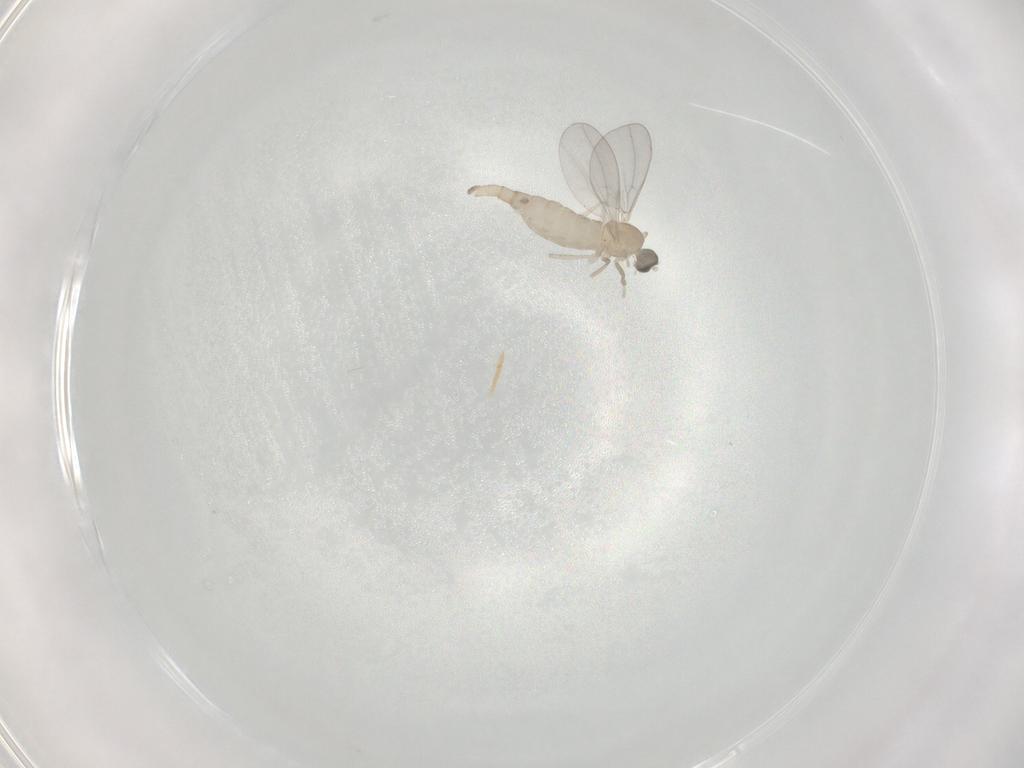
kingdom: Animalia
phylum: Arthropoda
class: Insecta
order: Diptera
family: Cecidomyiidae
